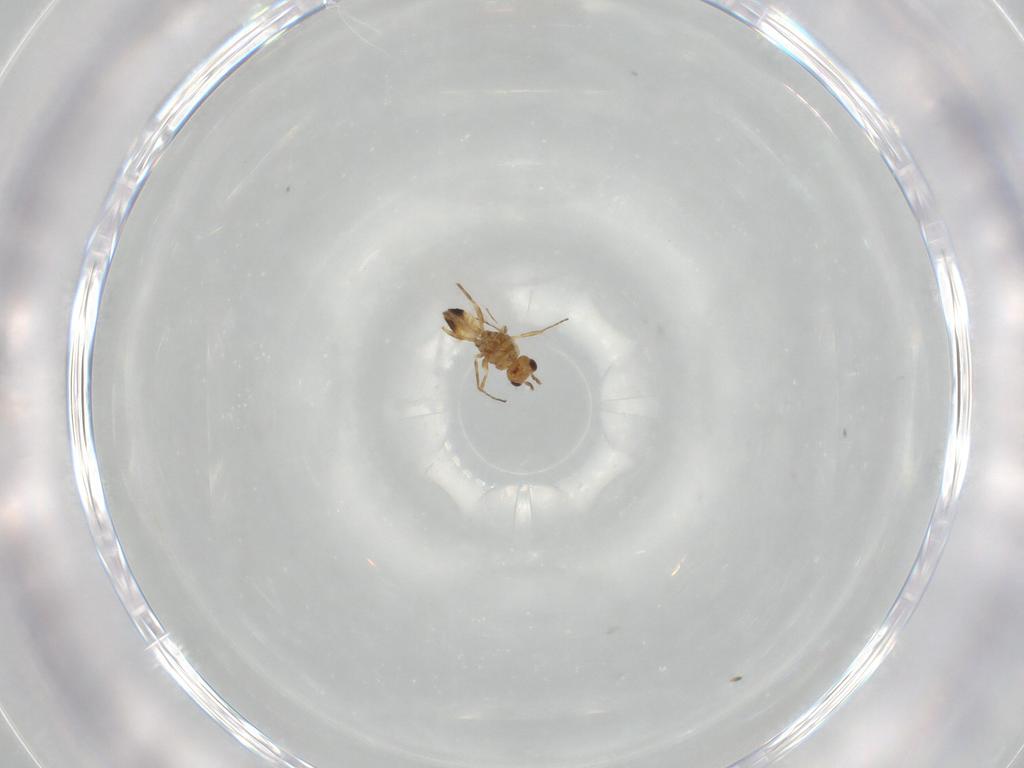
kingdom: Animalia
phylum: Arthropoda
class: Insecta
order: Hymenoptera
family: Mymaridae
